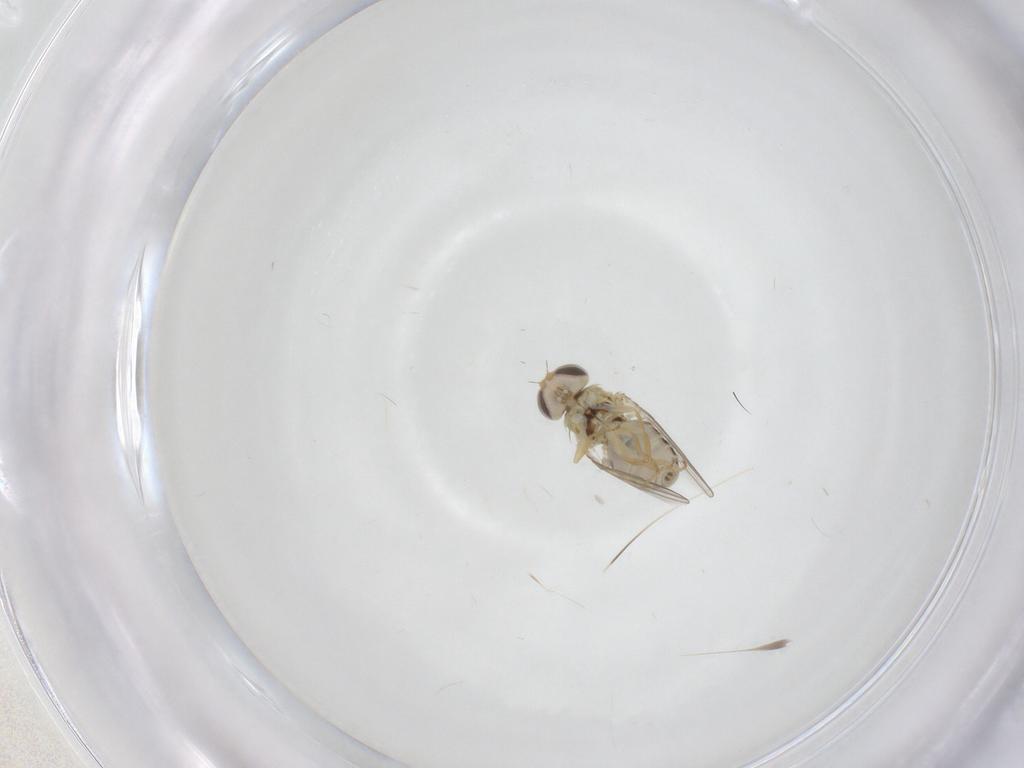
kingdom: Animalia
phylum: Arthropoda
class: Insecta
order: Diptera
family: Chyromyidae
